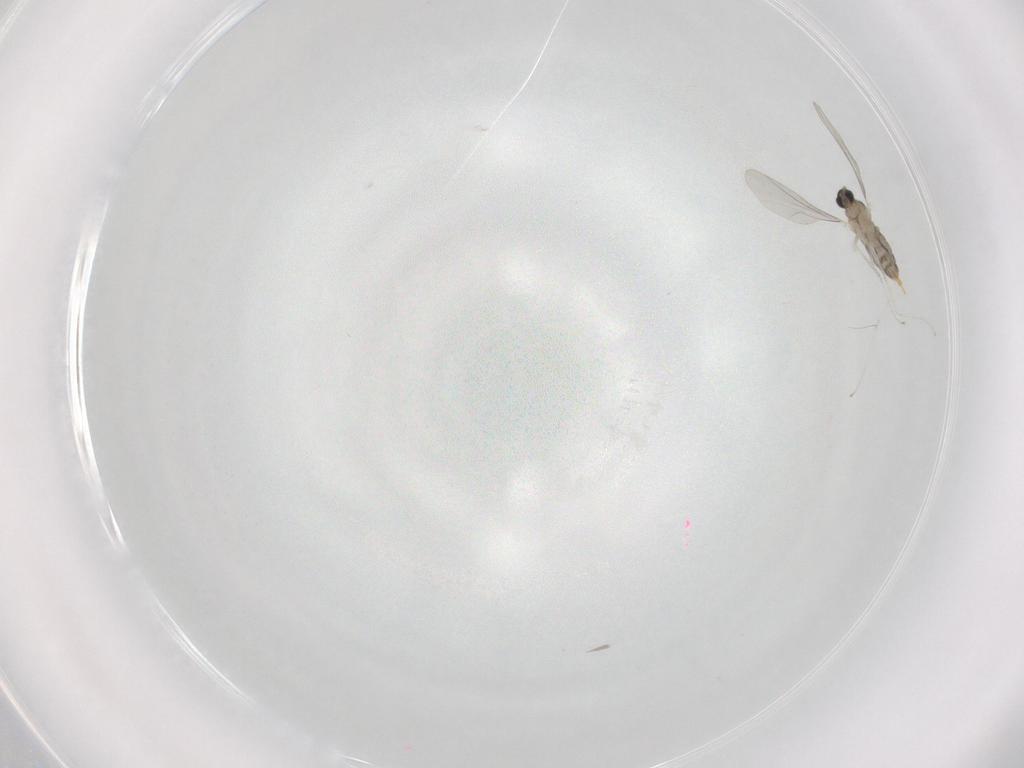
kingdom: Animalia
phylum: Arthropoda
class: Insecta
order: Diptera
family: Cecidomyiidae
